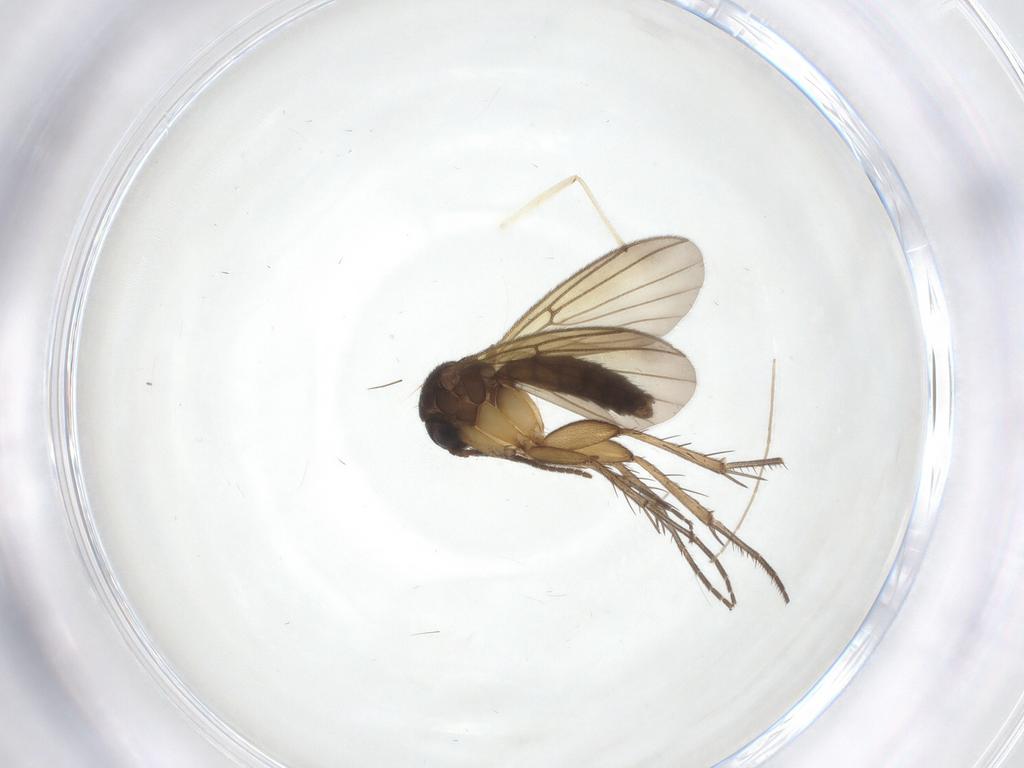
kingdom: Animalia
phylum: Arthropoda
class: Insecta
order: Diptera
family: Mycetophilidae
